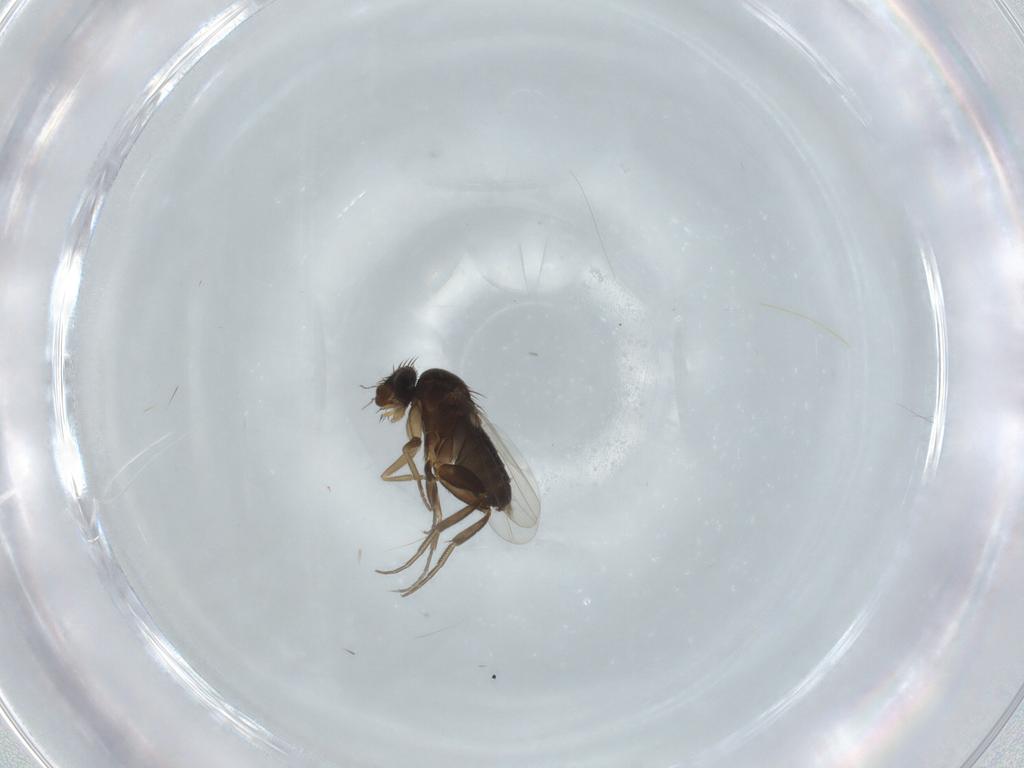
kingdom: Animalia
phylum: Arthropoda
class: Insecta
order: Diptera
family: Phoridae
